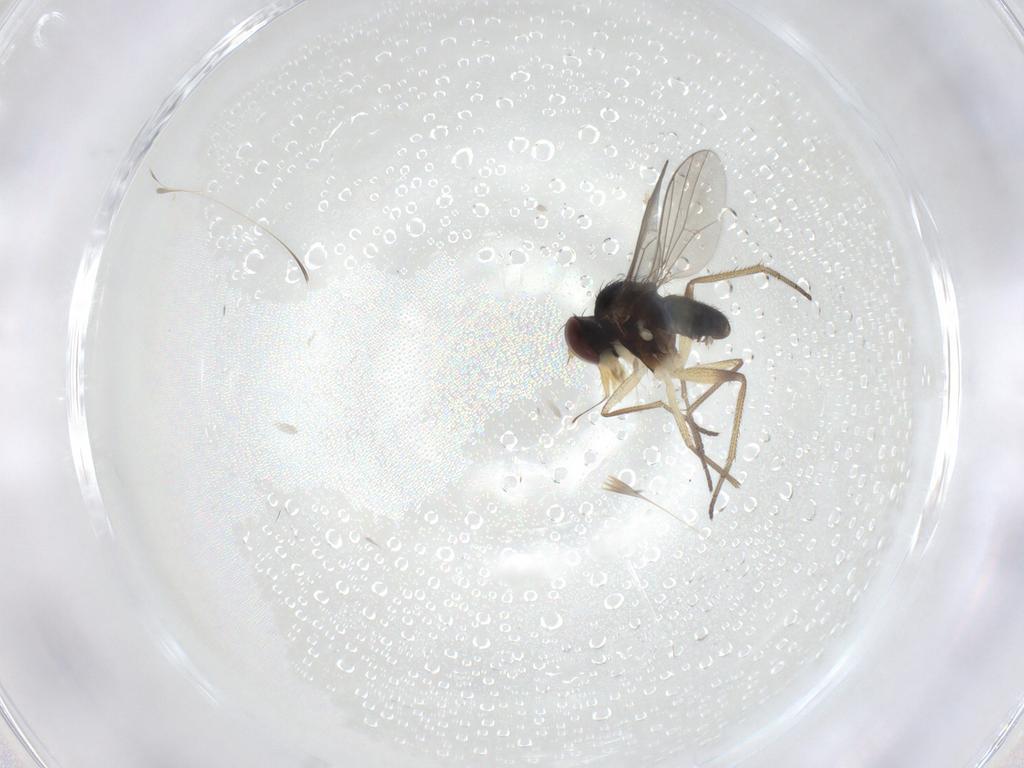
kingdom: Animalia
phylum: Arthropoda
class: Insecta
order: Diptera
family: Dolichopodidae
